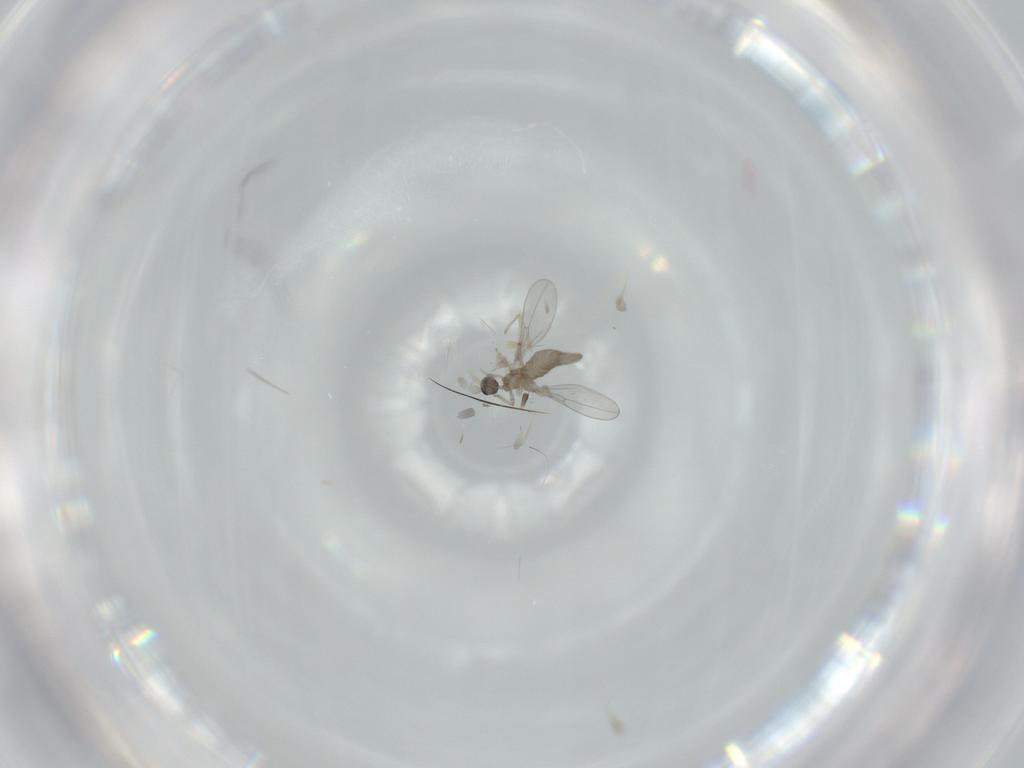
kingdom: Animalia
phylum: Arthropoda
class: Insecta
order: Diptera
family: Cecidomyiidae
